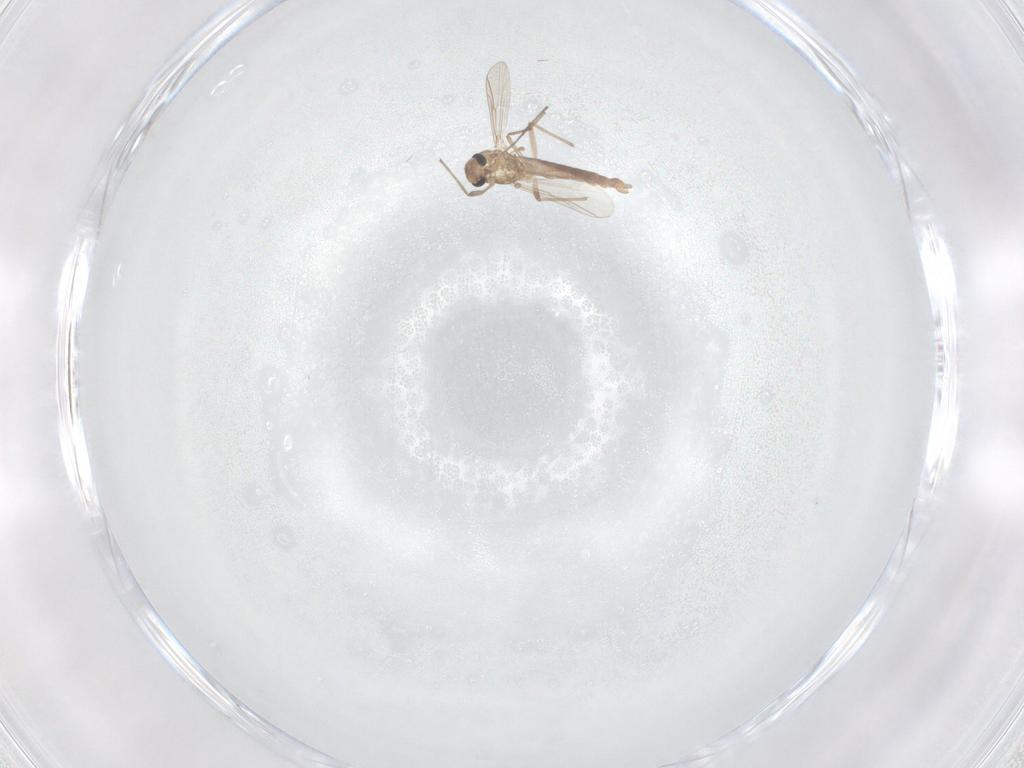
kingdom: Animalia
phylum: Arthropoda
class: Insecta
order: Diptera
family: Chironomidae
